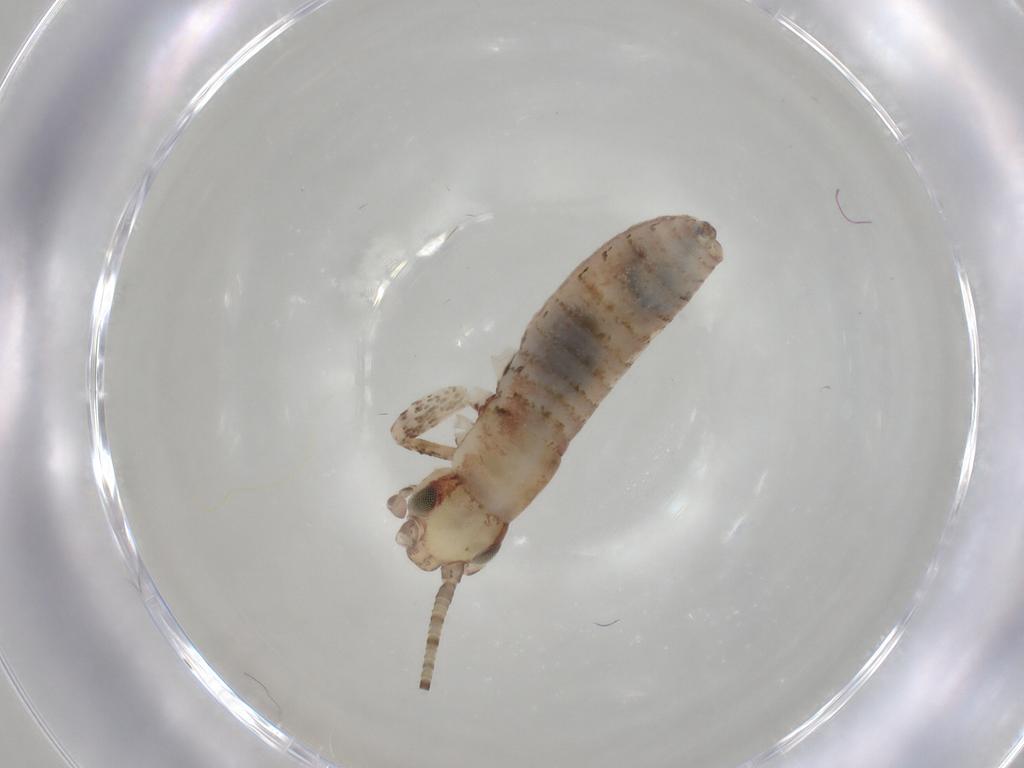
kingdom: Animalia
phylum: Arthropoda
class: Insecta
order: Orthoptera
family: Mogoplistidae
